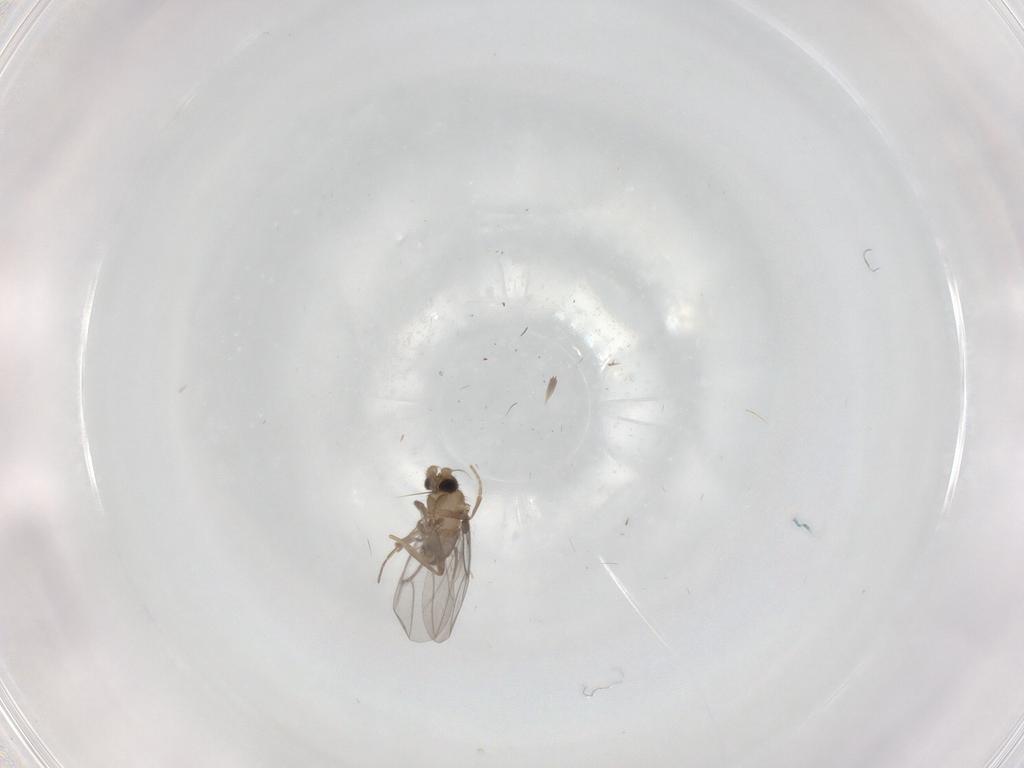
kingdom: Animalia
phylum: Arthropoda
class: Insecta
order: Diptera
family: Cecidomyiidae
